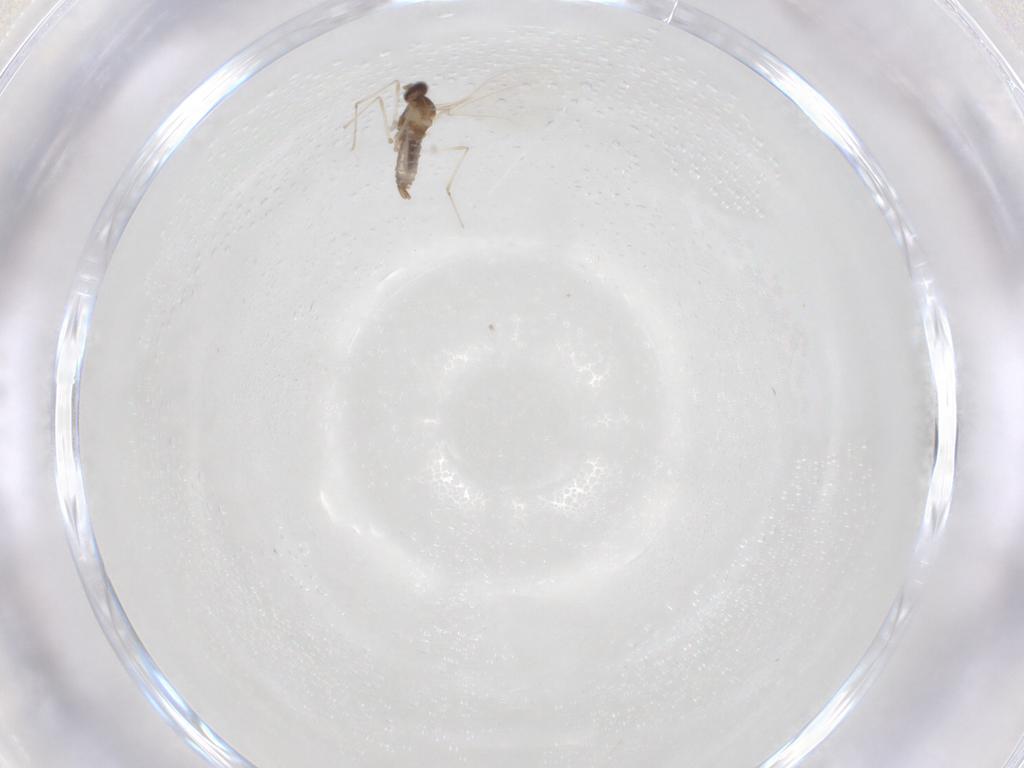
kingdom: Animalia
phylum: Arthropoda
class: Insecta
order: Diptera
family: Cecidomyiidae
